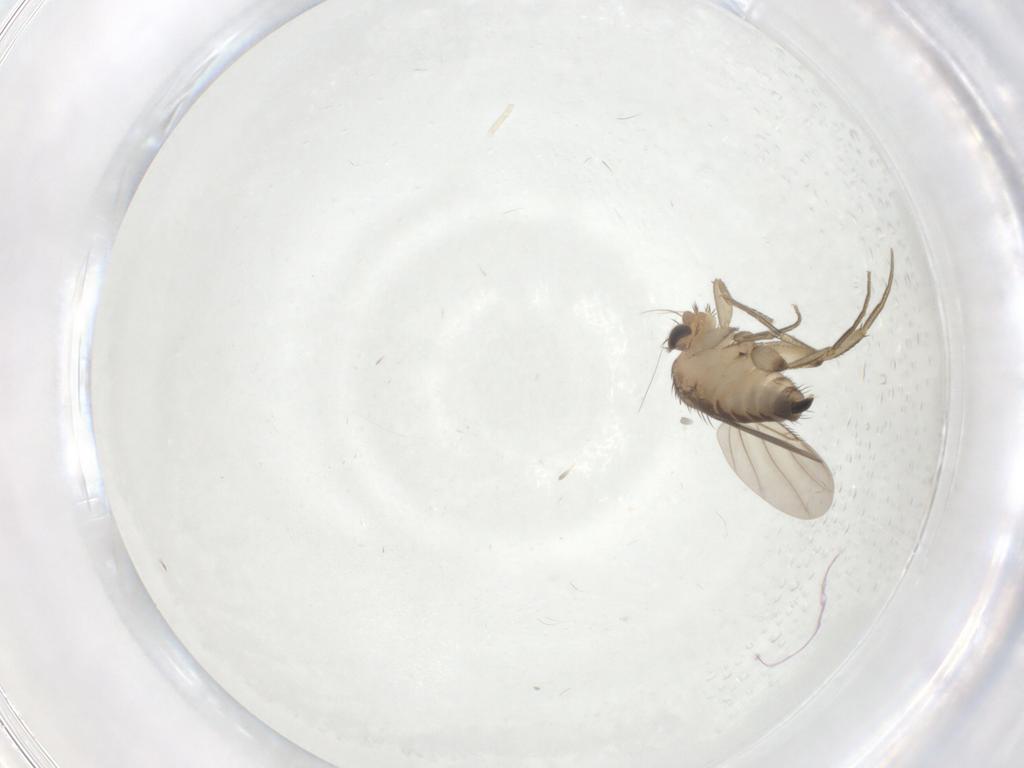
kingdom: Animalia
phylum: Arthropoda
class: Insecta
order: Diptera
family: Phoridae
